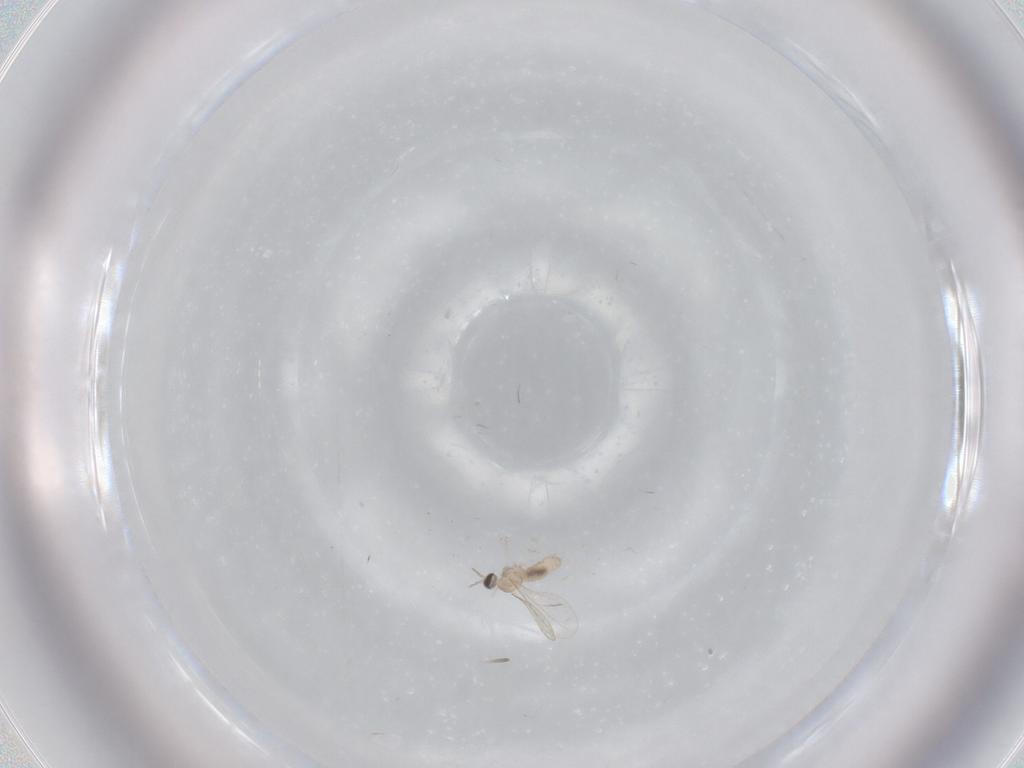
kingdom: Animalia
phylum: Arthropoda
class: Insecta
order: Diptera
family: Cecidomyiidae
